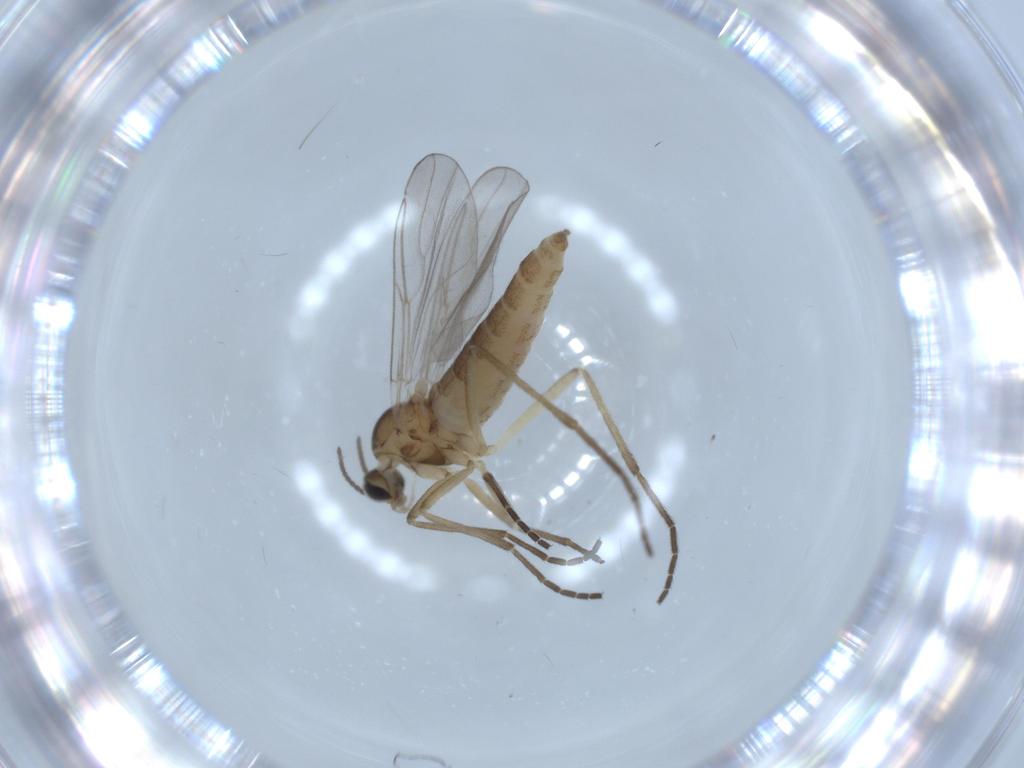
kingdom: Animalia
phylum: Arthropoda
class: Insecta
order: Diptera
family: Cecidomyiidae
